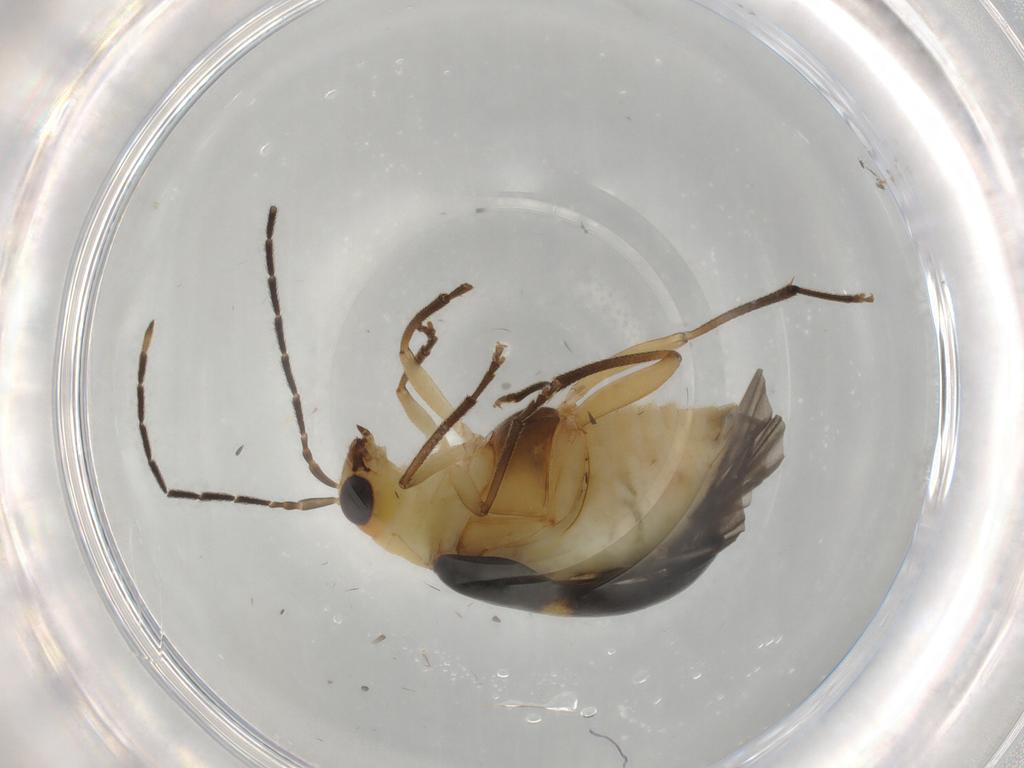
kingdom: Animalia
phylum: Arthropoda
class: Insecta
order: Coleoptera
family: Chrysomelidae
